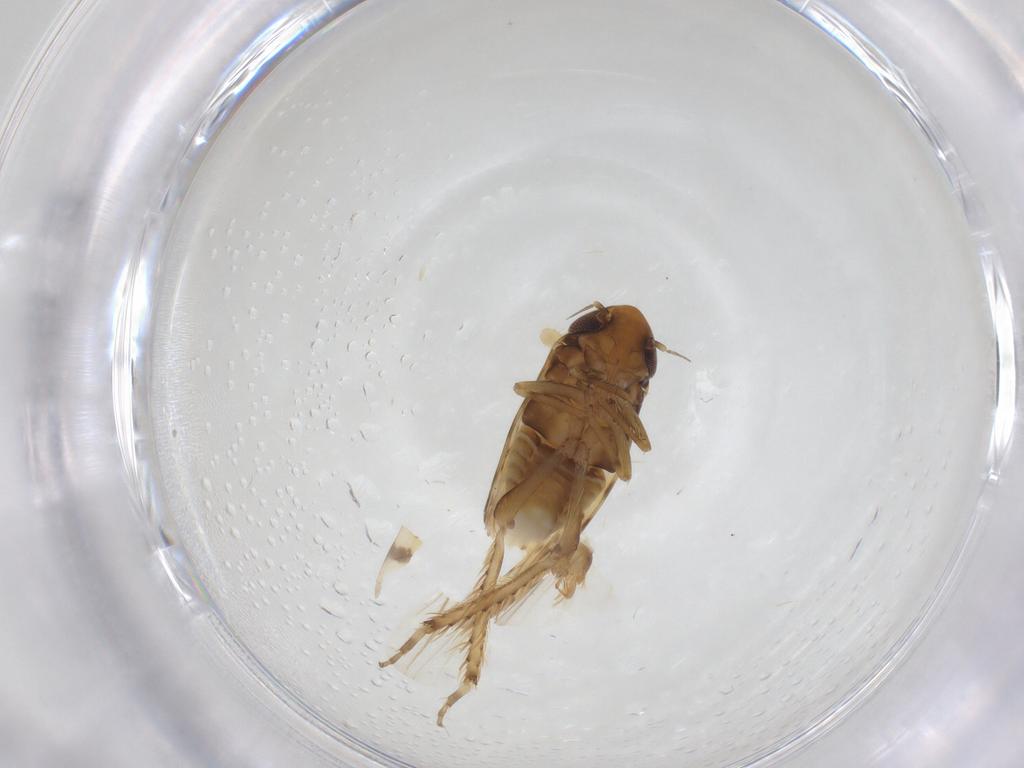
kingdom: Animalia
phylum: Arthropoda
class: Insecta
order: Hemiptera
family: Cicadellidae
